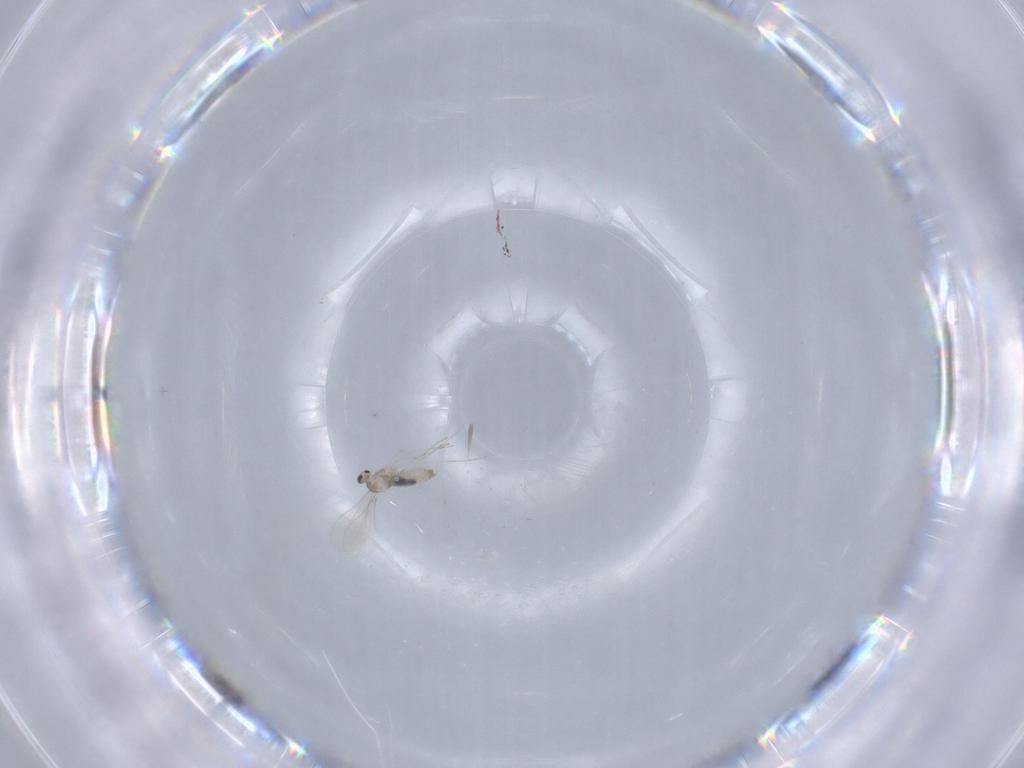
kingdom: Animalia
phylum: Arthropoda
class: Insecta
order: Diptera
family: Cecidomyiidae
